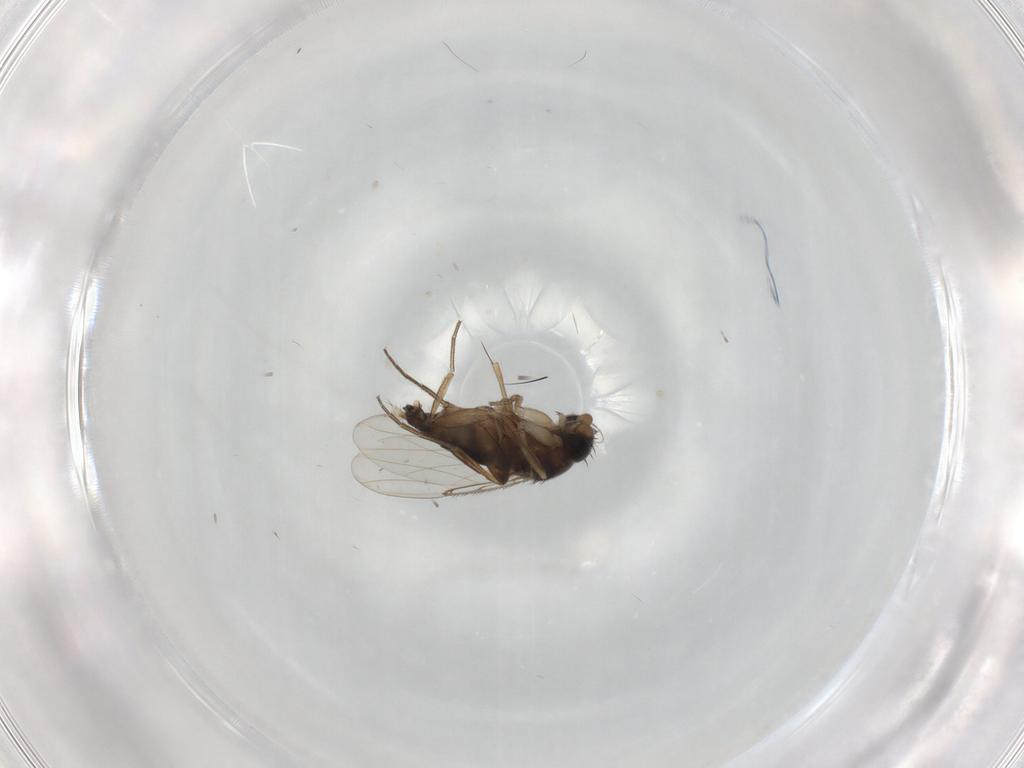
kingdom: Animalia
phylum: Arthropoda
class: Insecta
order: Diptera
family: Phoridae
